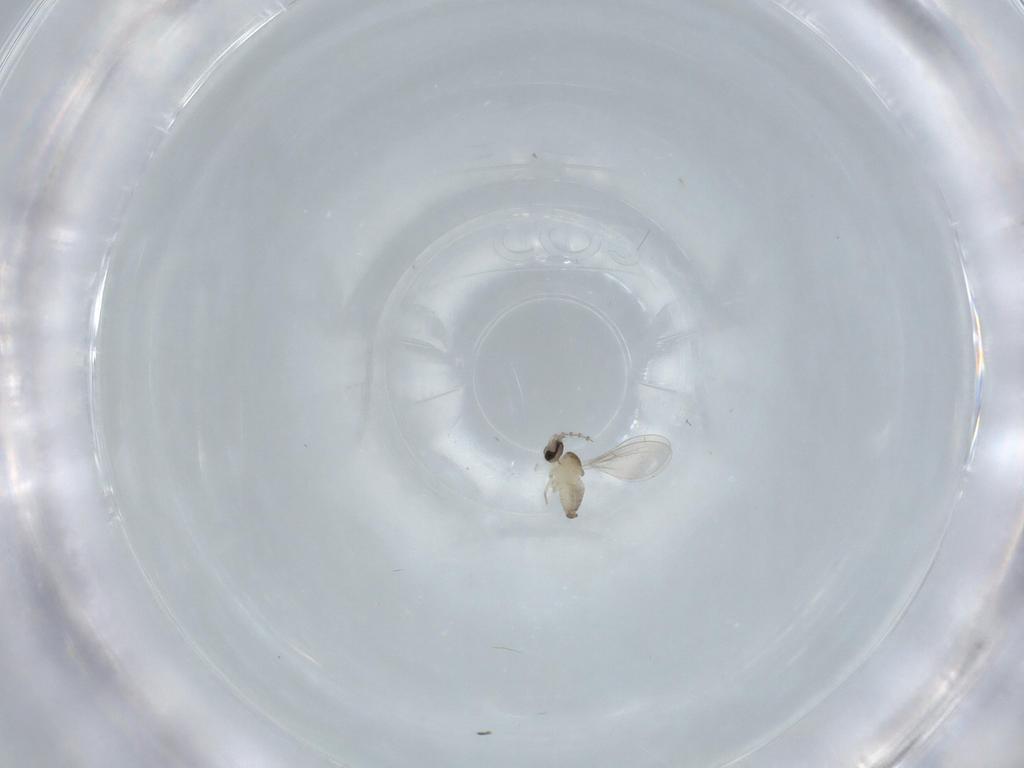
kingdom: Animalia
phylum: Arthropoda
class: Insecta
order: Diptera
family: Cecidomyiidae
